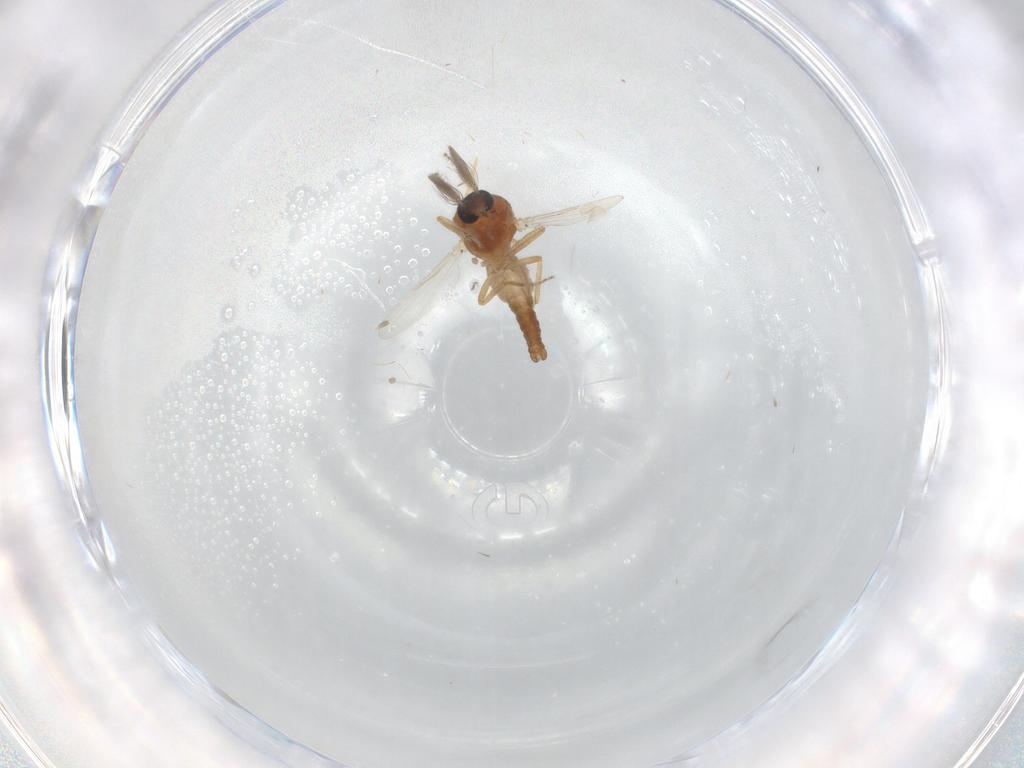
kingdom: Animalia
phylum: Arthropoda
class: Insecta
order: Diptera
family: Ceratopogonidae
